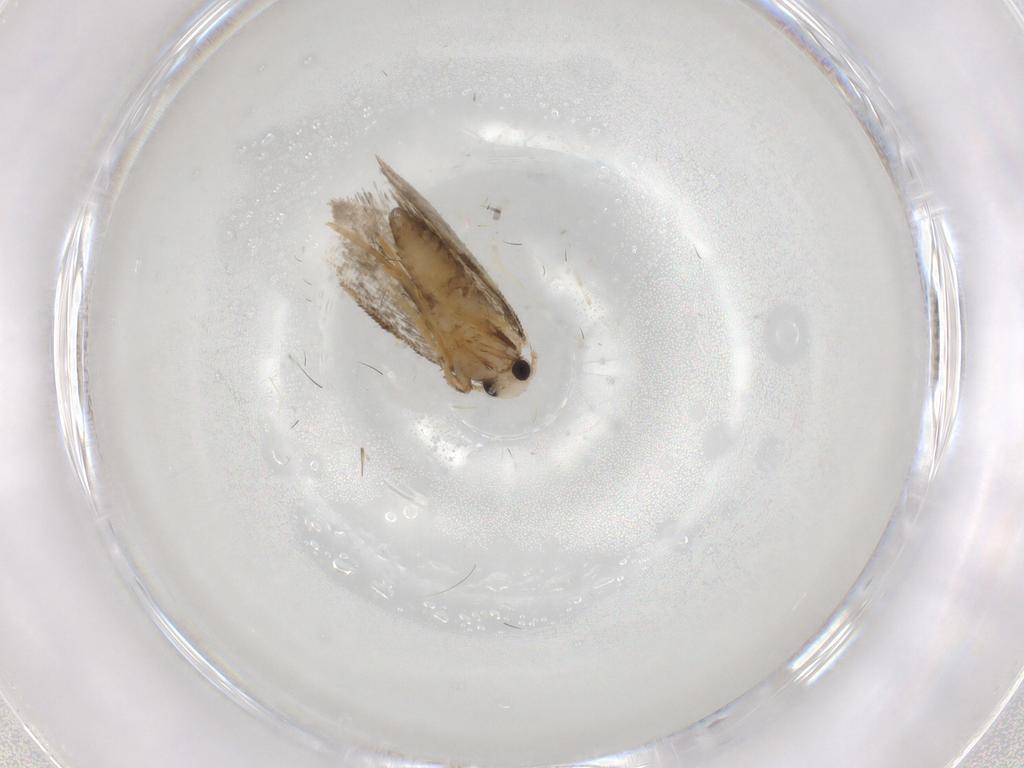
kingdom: Animalia
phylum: Arthropoda
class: Insecta
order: Lepidoptera
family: Psychidae
